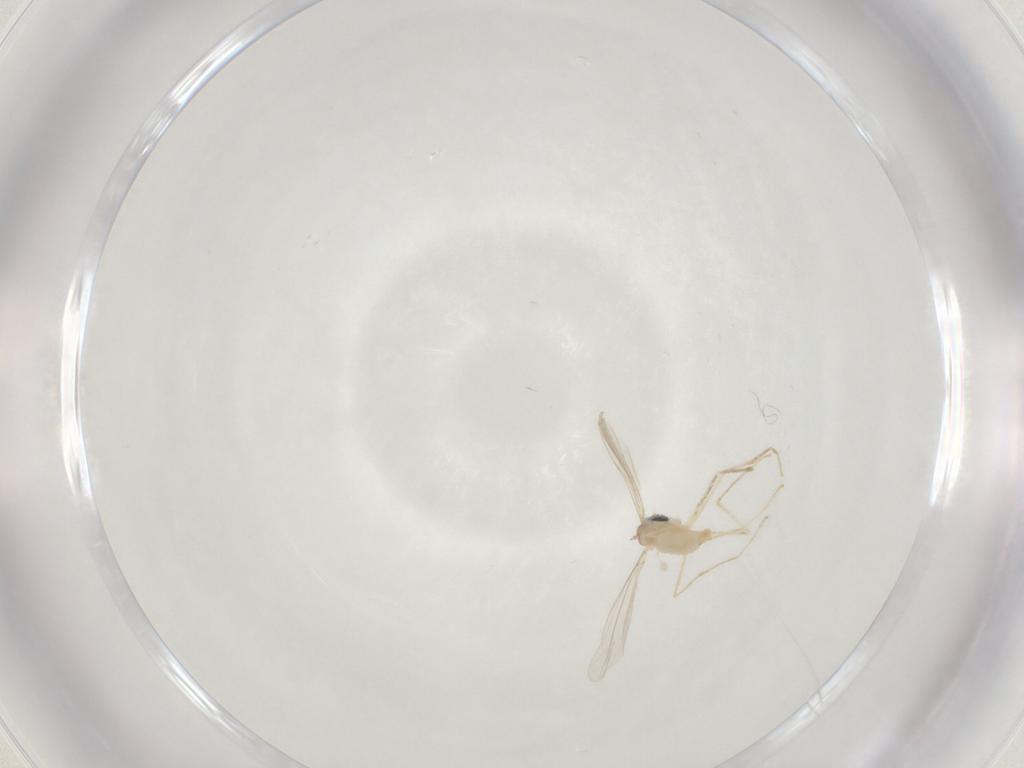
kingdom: Animalia
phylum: Arthropoda
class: Insecta
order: Diptera
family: Cecidomyiidae
